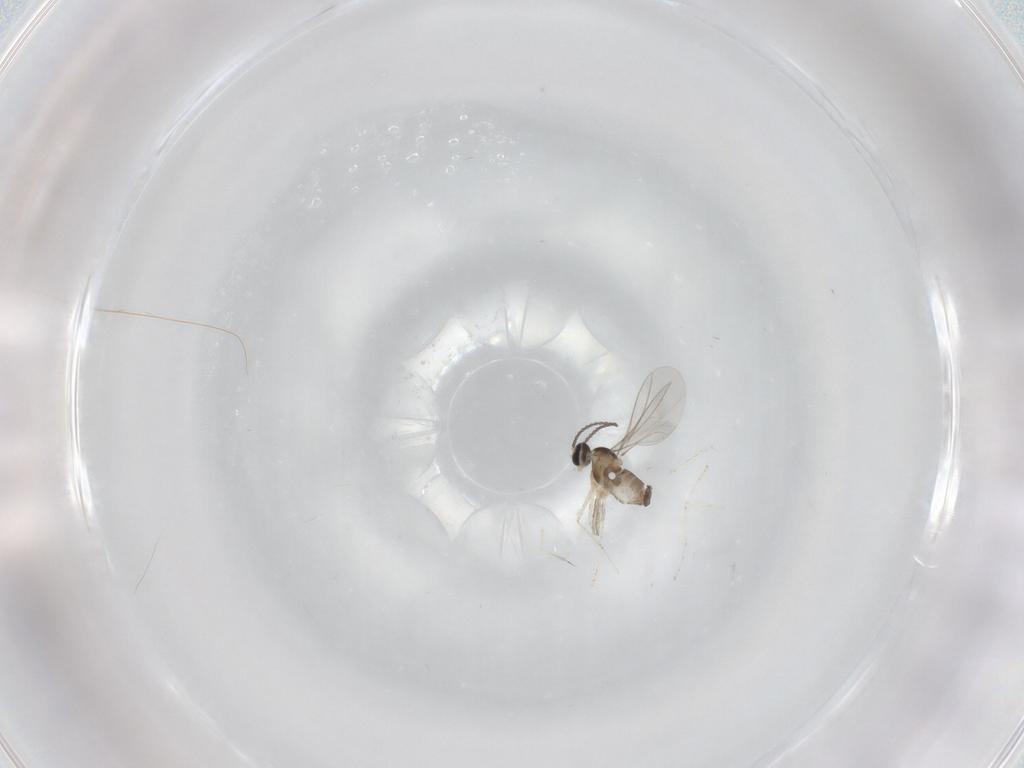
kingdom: Animalia
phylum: Arthropoda
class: Insecta
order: Diptera
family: Cecidomyiidae
